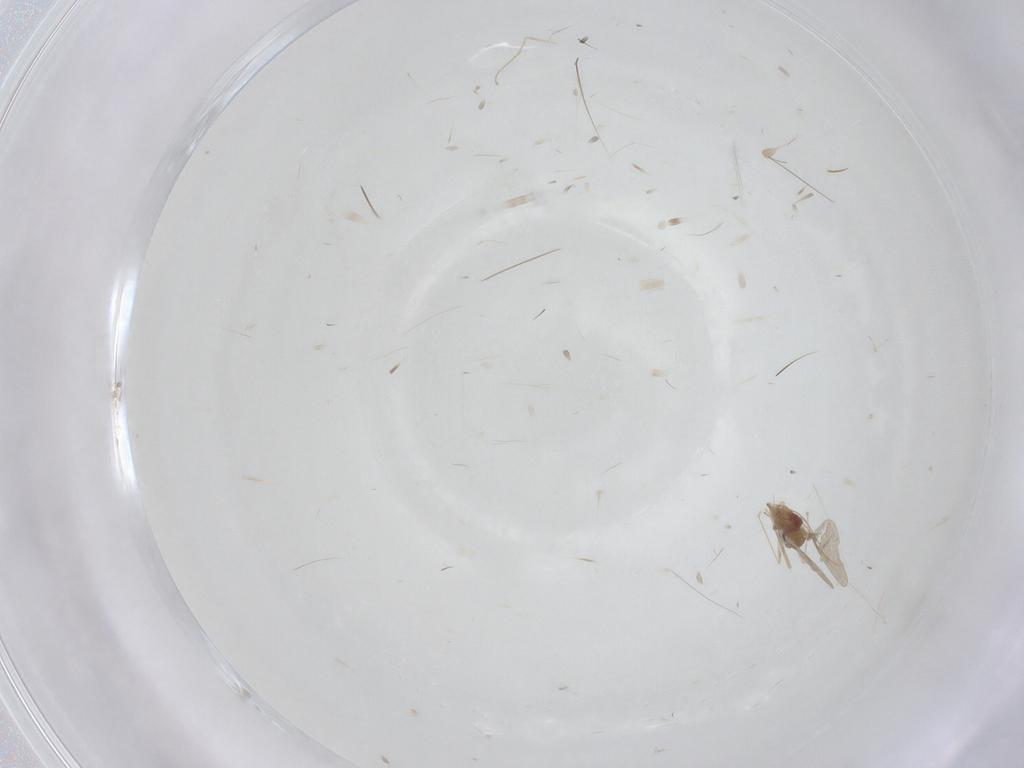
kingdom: Animalia
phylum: Arthropoda
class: Insecta
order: Diptera
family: Cecidomyiidae
